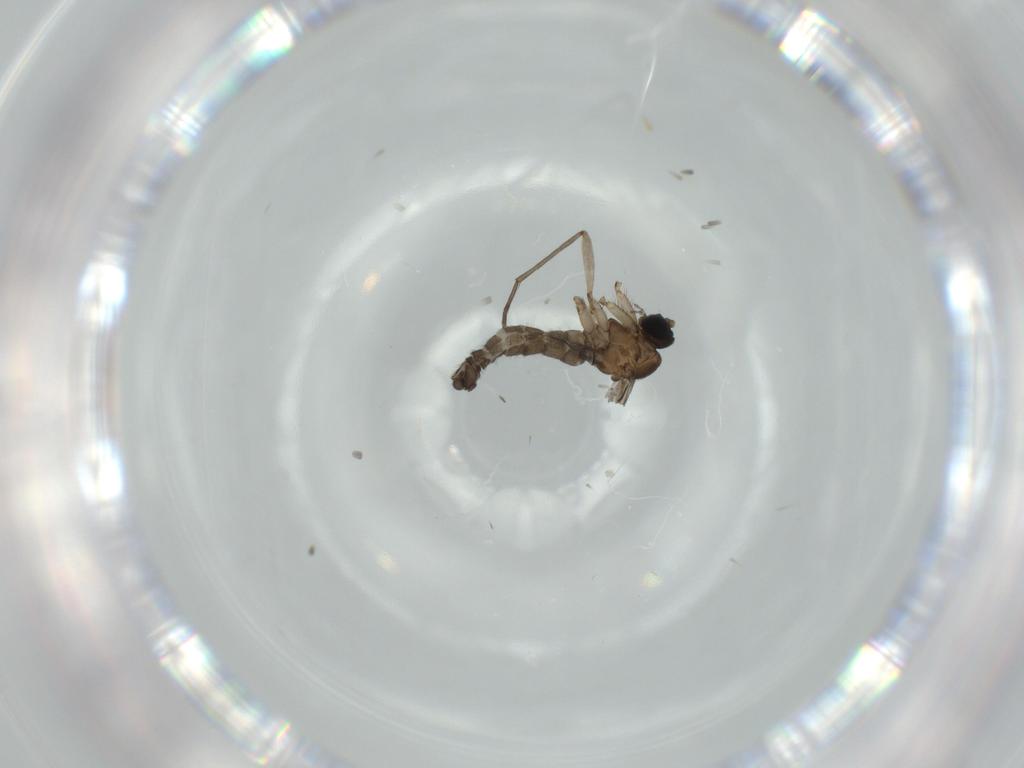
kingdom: Animalia
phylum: Arthropoda
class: Insecta
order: Diptera
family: Sciaridae
